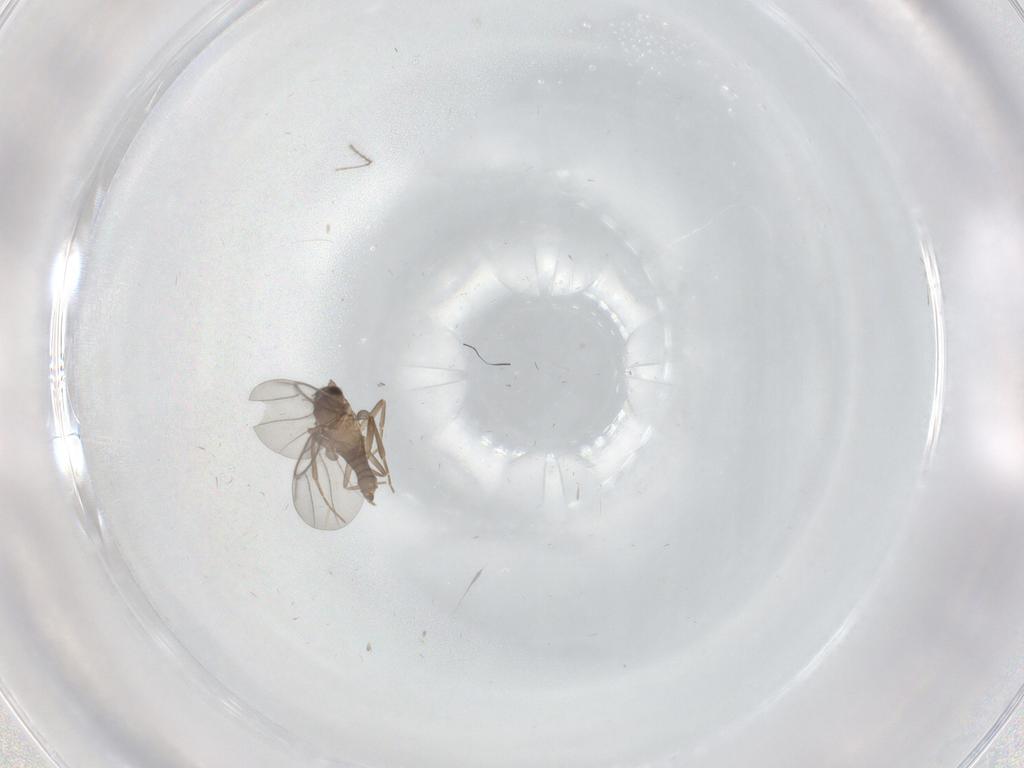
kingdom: Animalia
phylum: Arthropoda
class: Insecta
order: Diptera
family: Ceratopogonidae
